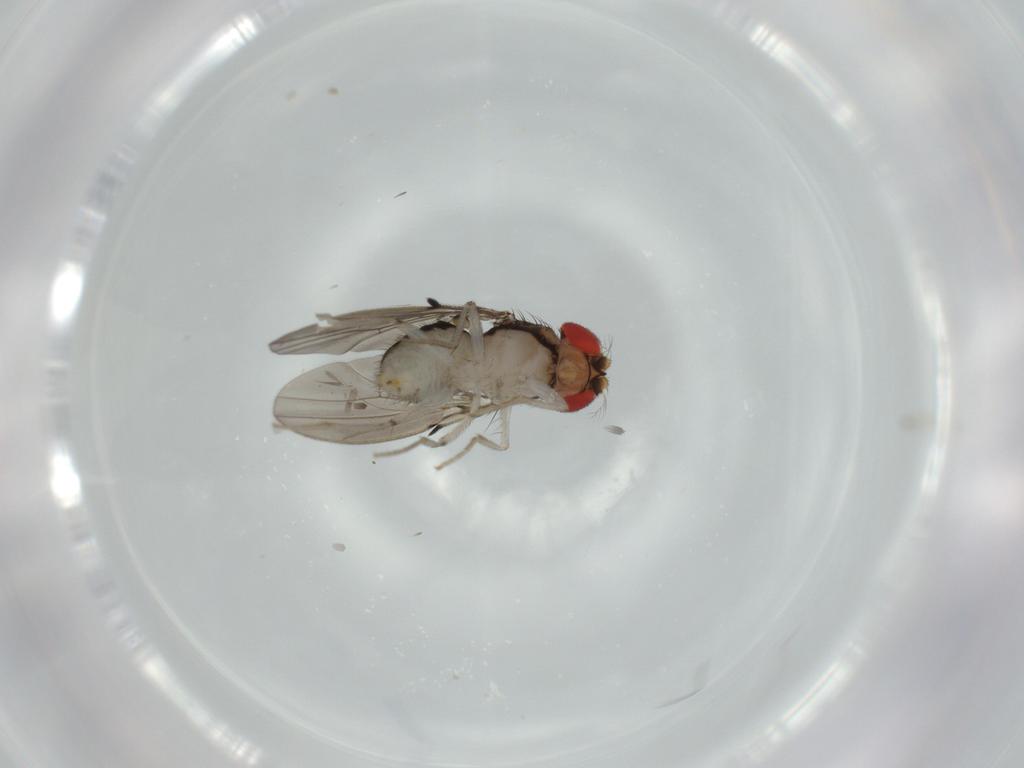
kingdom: Animalia
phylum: Arthropoda
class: Insecta
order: Diptera
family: Drosophilidae
